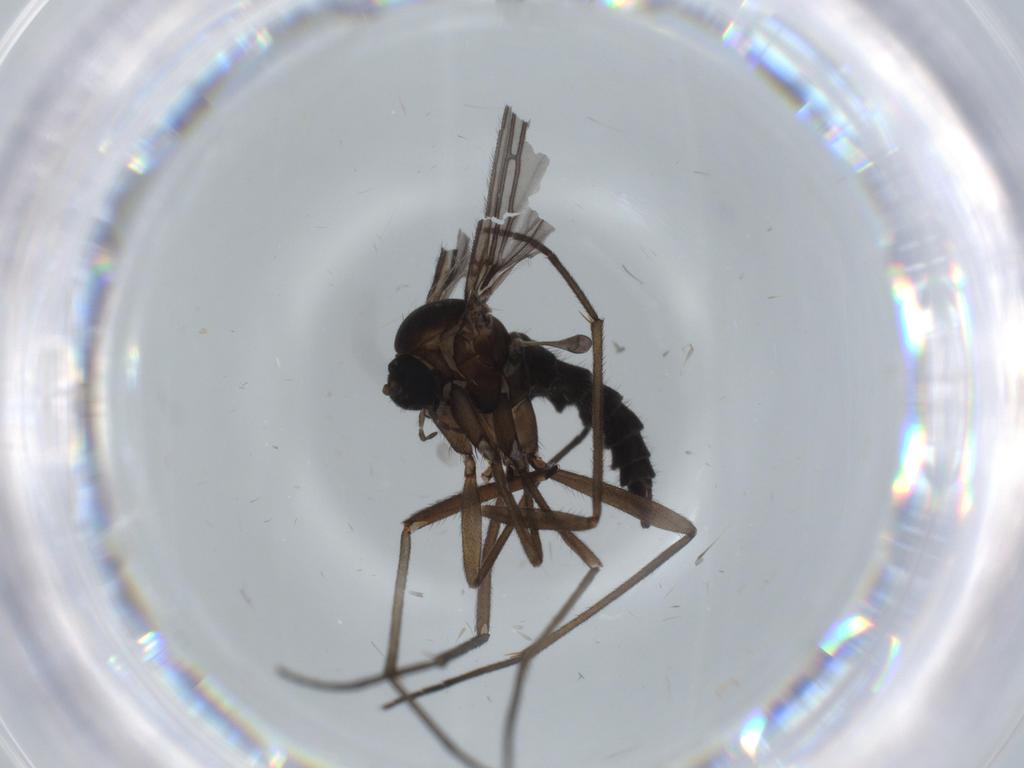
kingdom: Animalia
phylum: Arthropoda
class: Insecta
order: Diptera
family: Sciaridae
